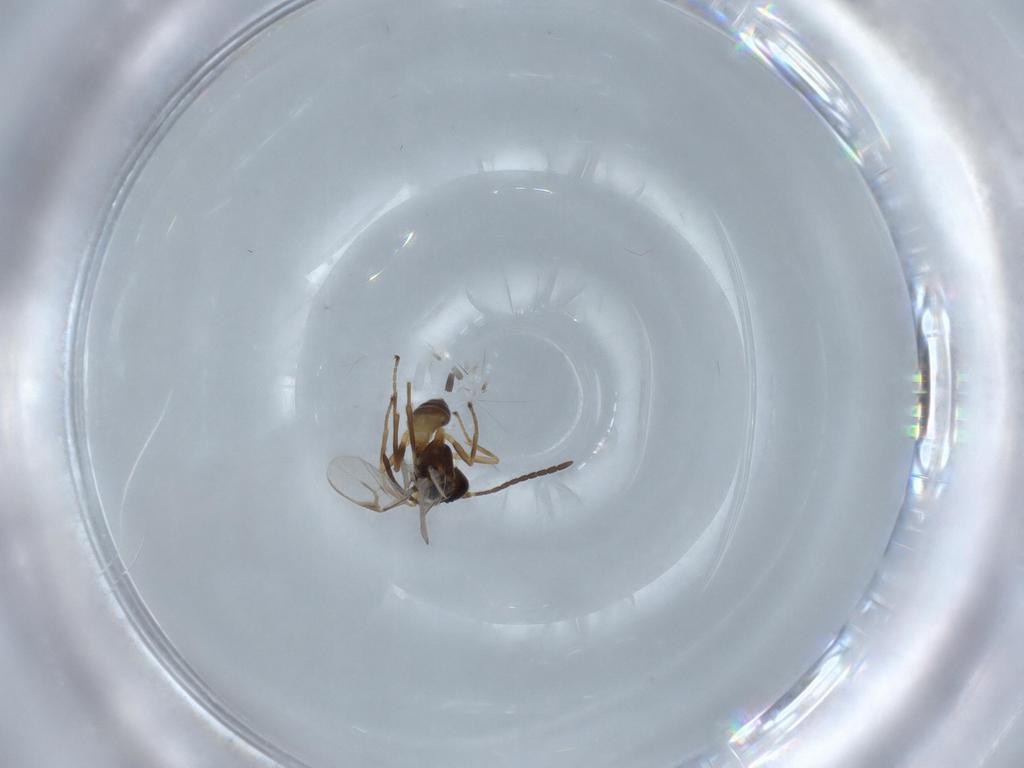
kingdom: Animalia
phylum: Arthropoda
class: Insecta
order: Hymenoptera
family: Braconidae
